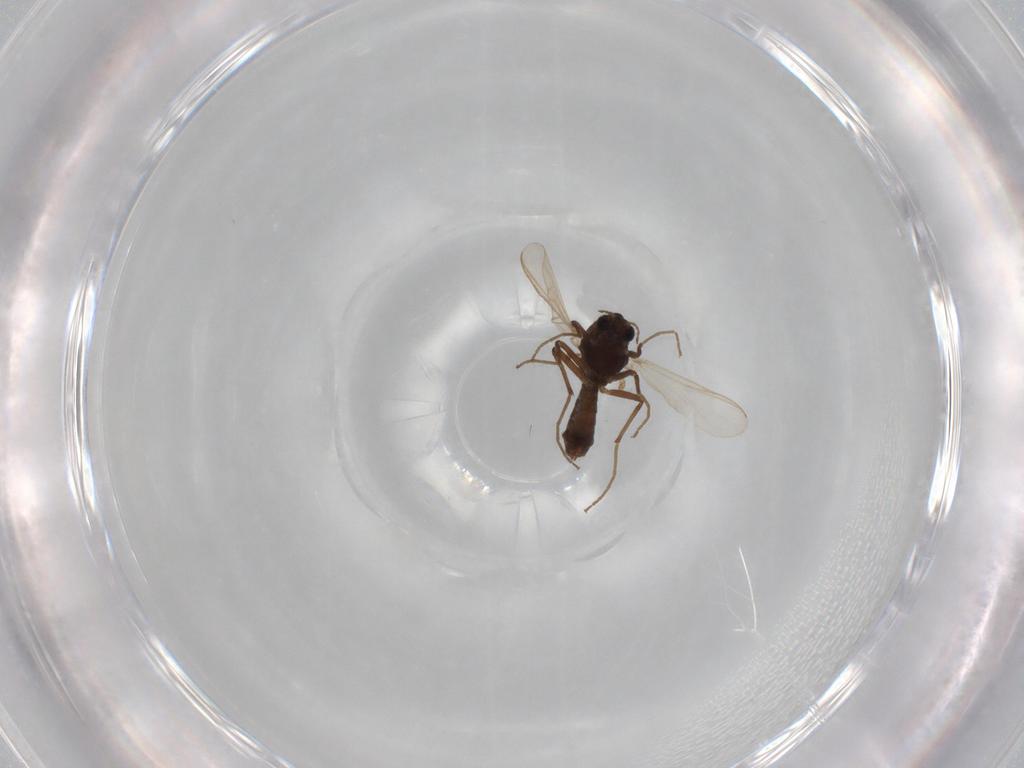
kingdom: Animalia
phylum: Arthropoda
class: Insecta
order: Diptera
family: Chironomidae
